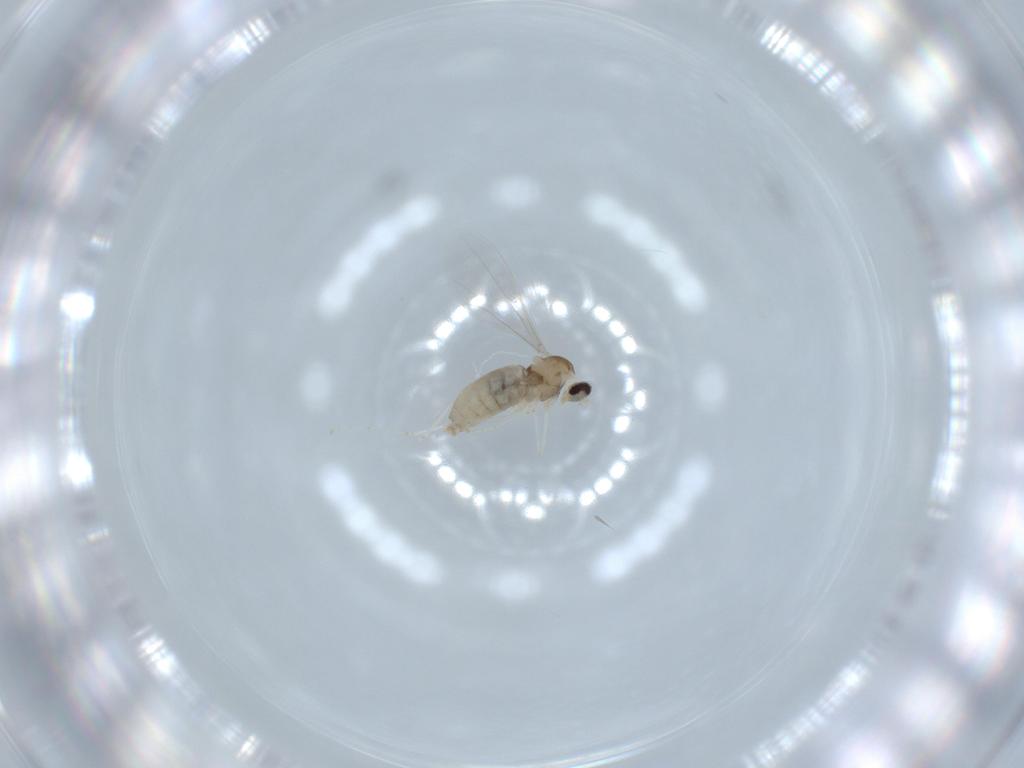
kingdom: Animalia
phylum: Arthropoda
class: Insecta
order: Diptera
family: Cecidomyiidae
